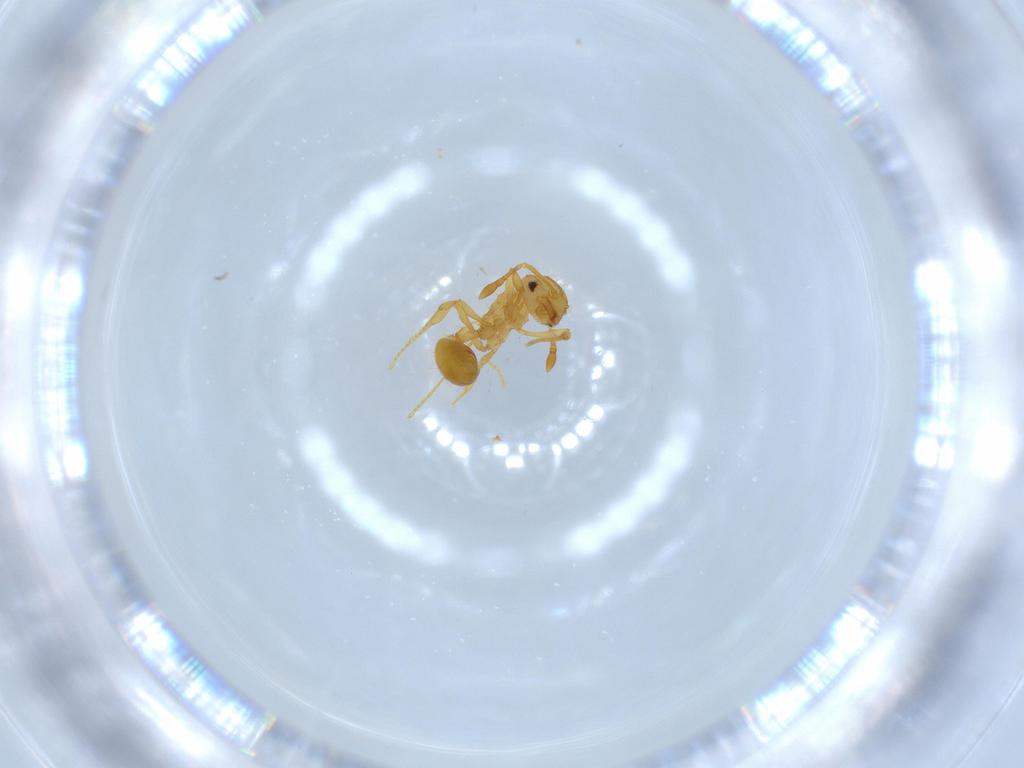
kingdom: Animalia
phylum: Arthropoda
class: Insecta
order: Hymenoptera
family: Formicidae
